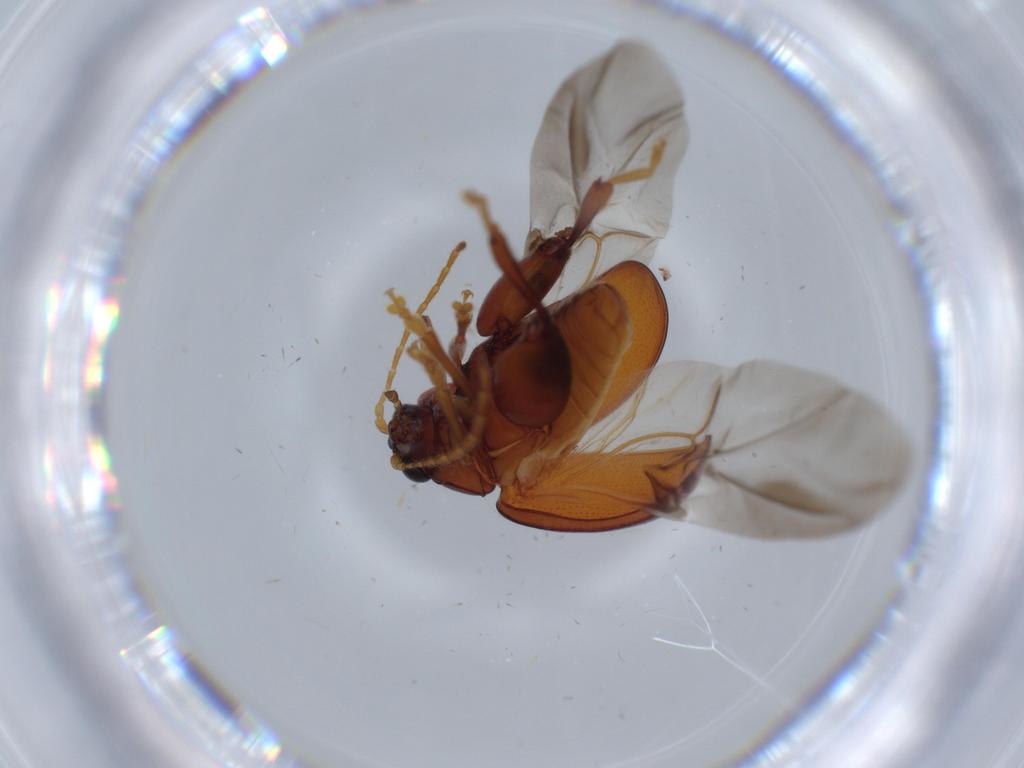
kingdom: Animalia
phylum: Arthropoda
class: Insecta
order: Coleoptera
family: Chrysomelidae
